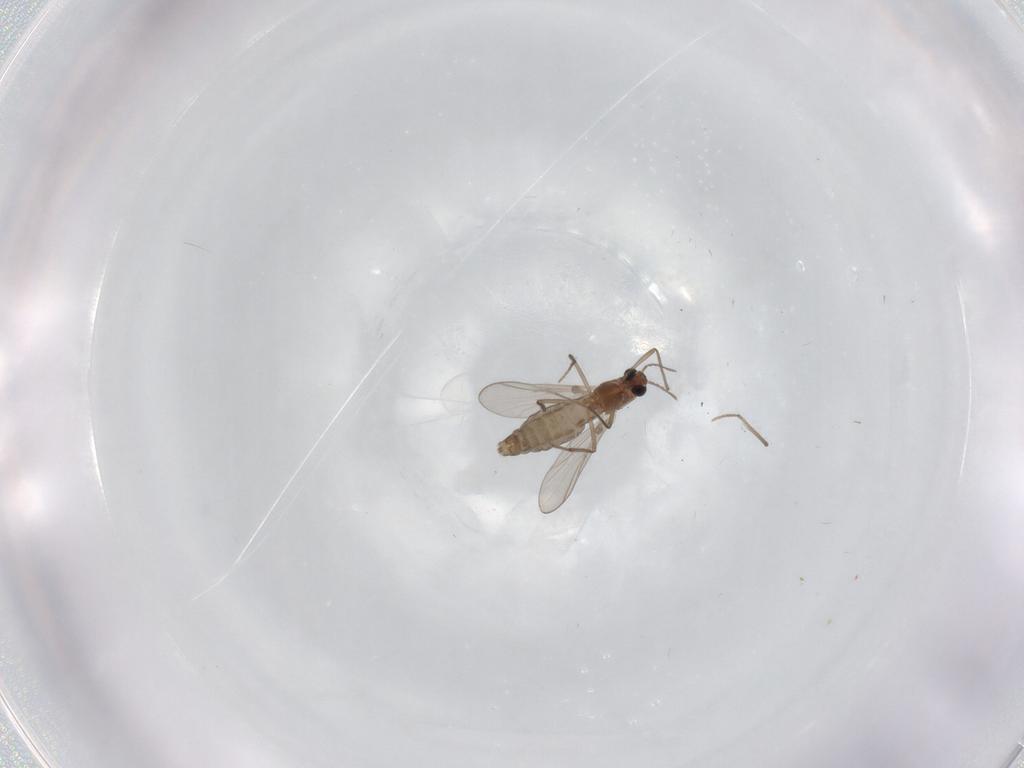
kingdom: Animalia
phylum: Arthropoda
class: Insecta
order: Diptera
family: Chironomidae
